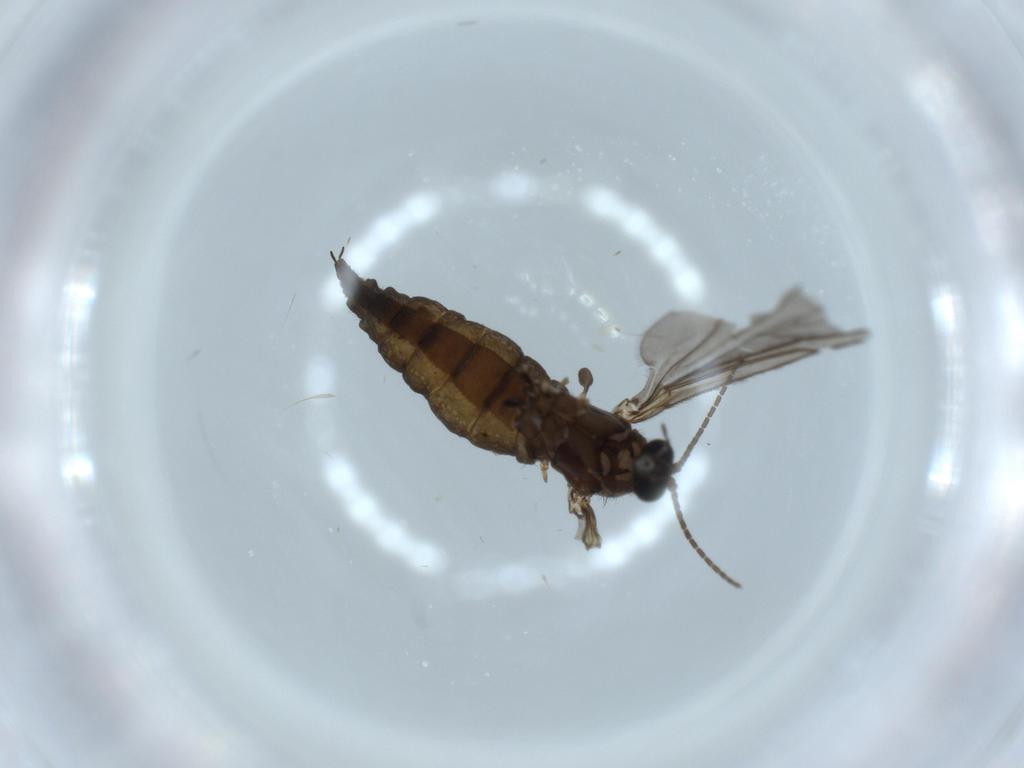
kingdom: Animalia
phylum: Arthropoda
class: Insecta
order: Diptera
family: Sciaridae
